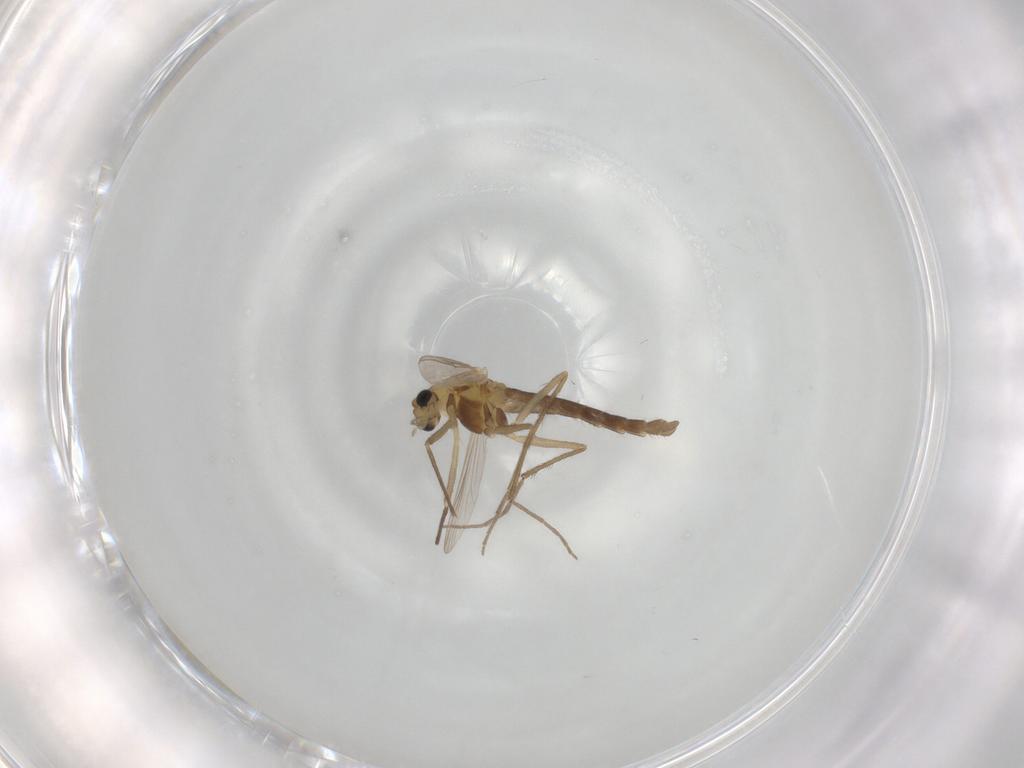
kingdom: Animalia
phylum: Arthropoda
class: Insecta
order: Diptera
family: Chironomidae
